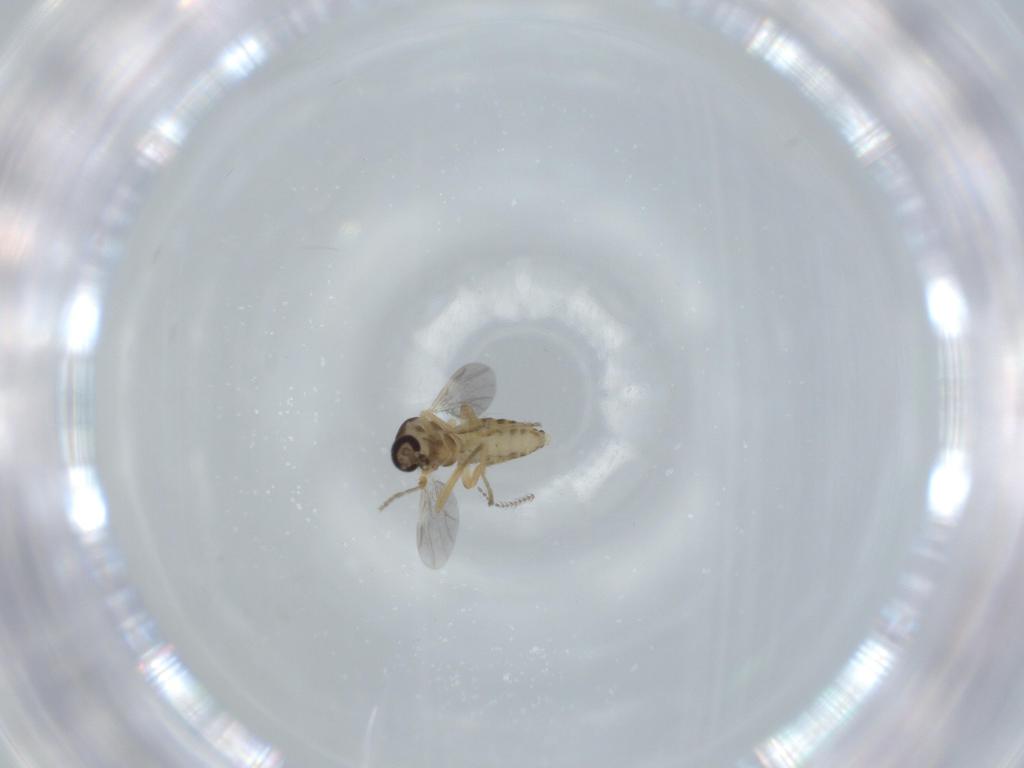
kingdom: Animalia
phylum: Arthropoda
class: Insecta
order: Diptera
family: Ceratopogonidae
